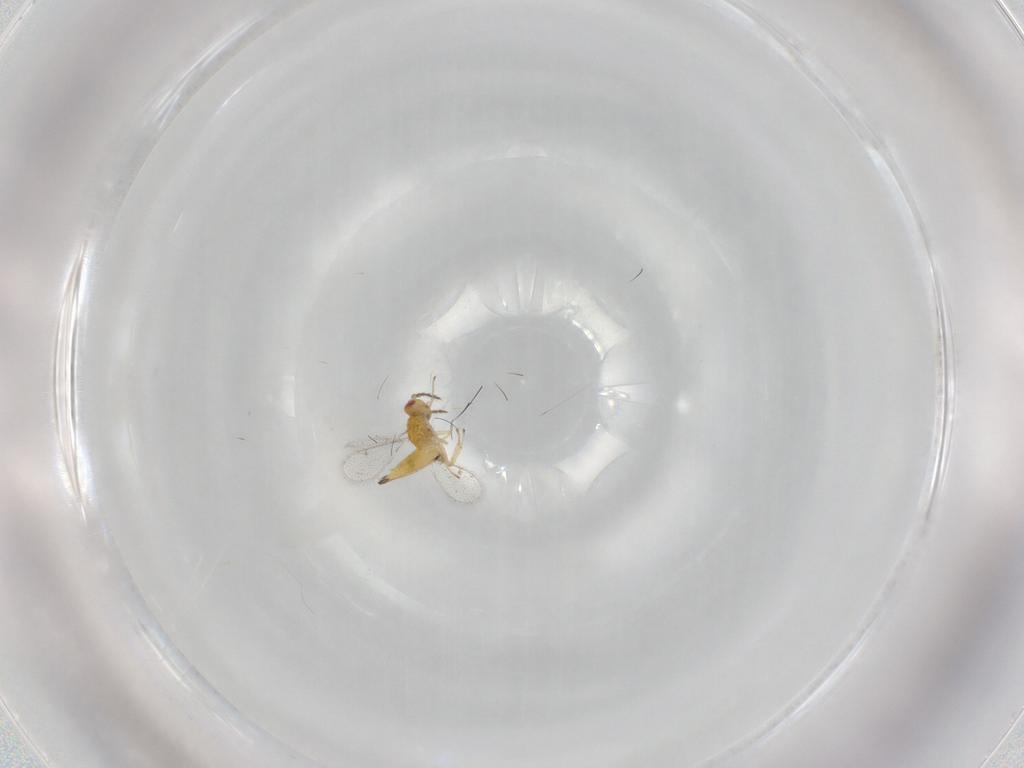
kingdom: Animalia
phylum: Arthropoda
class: Insecta
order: Hymenoptera
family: Eulophidae
